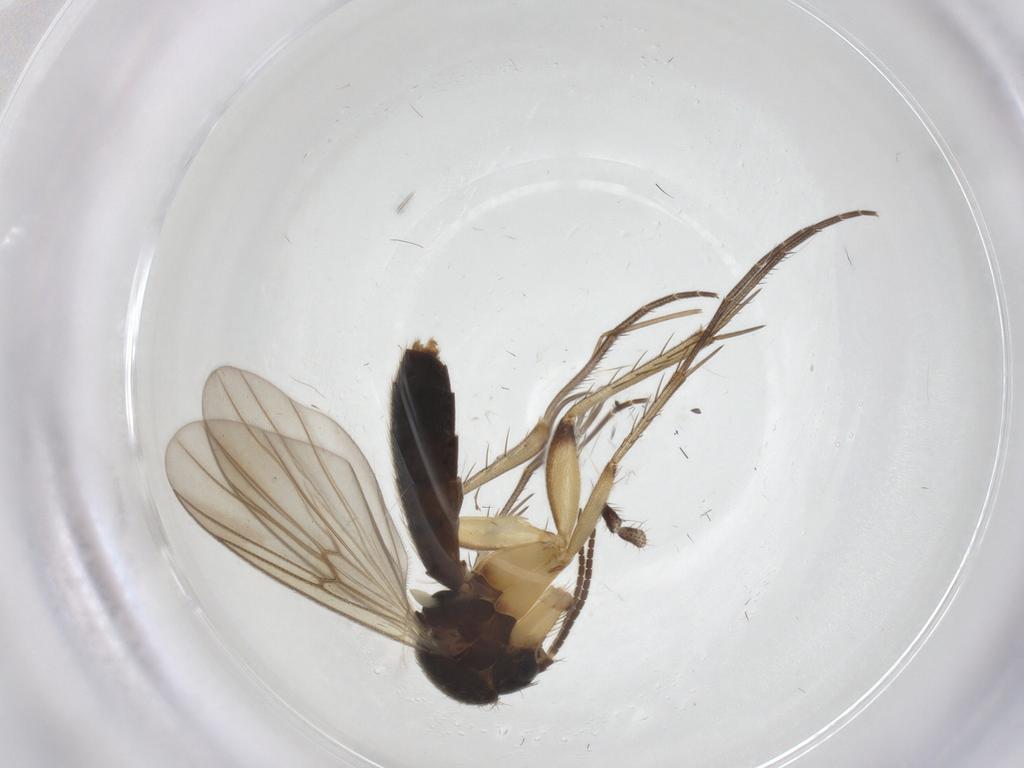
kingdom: Animalia
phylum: Arthropoda
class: Insecta
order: Diptera
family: Mycetophilidae
